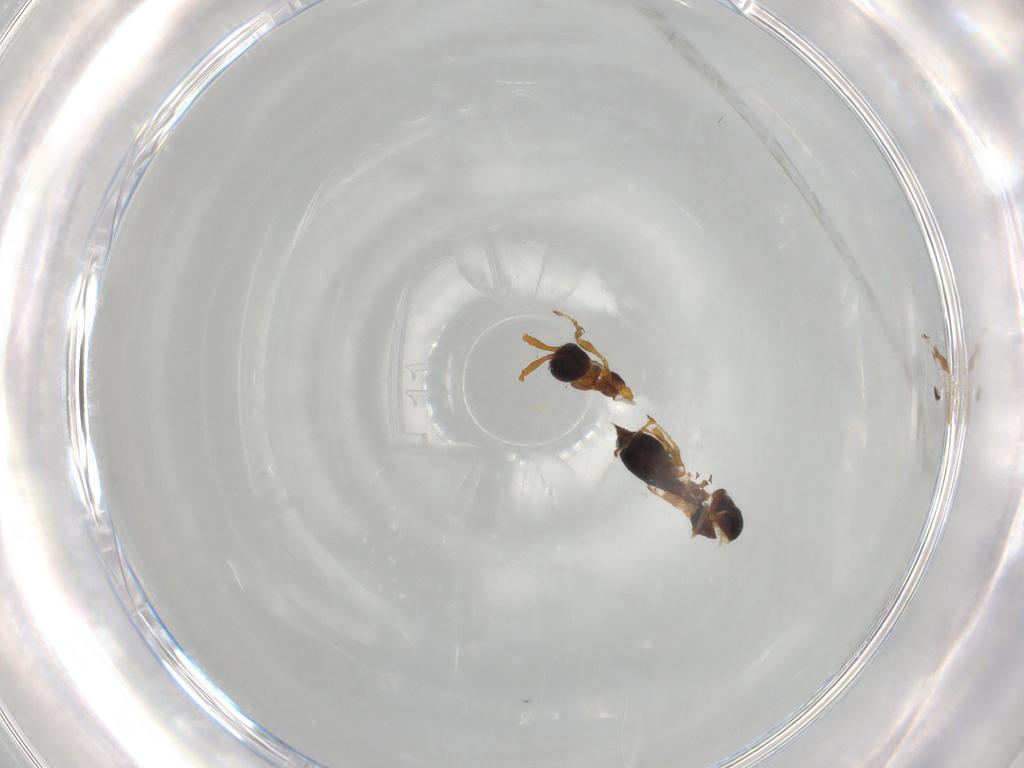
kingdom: Animalia
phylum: Arthropoda
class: Insecta
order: Hymenoptera
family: Diapriidae
